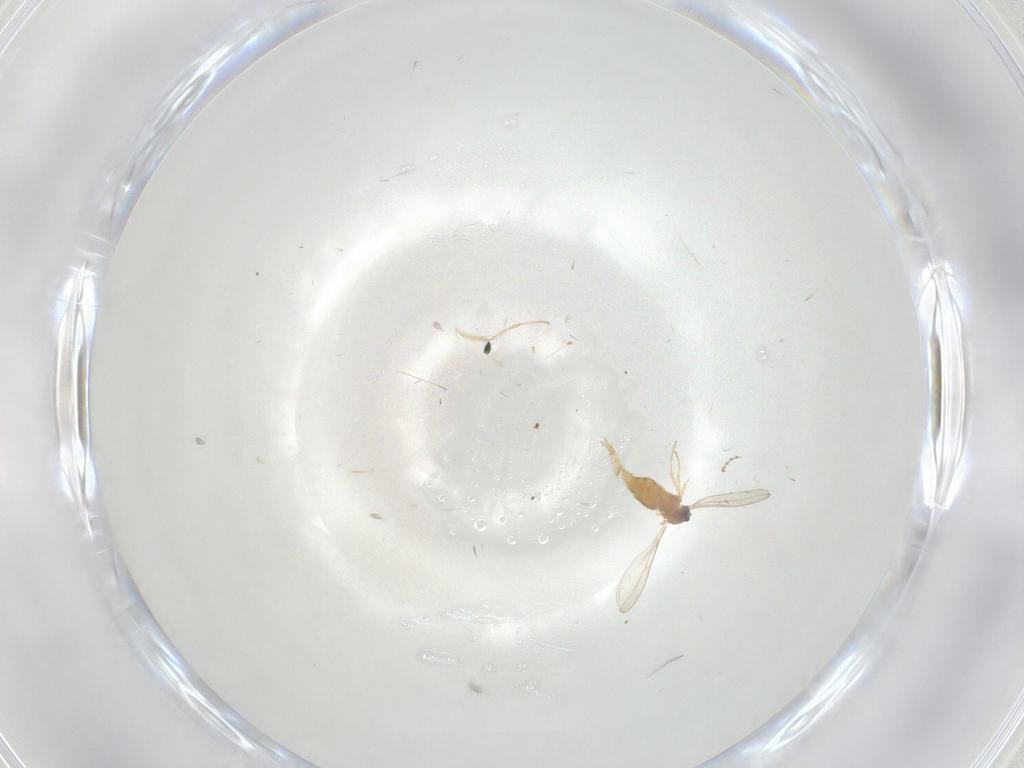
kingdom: Animalia
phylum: Arthropoda
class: Insecta
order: Diptera
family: Cecidomyiidae
